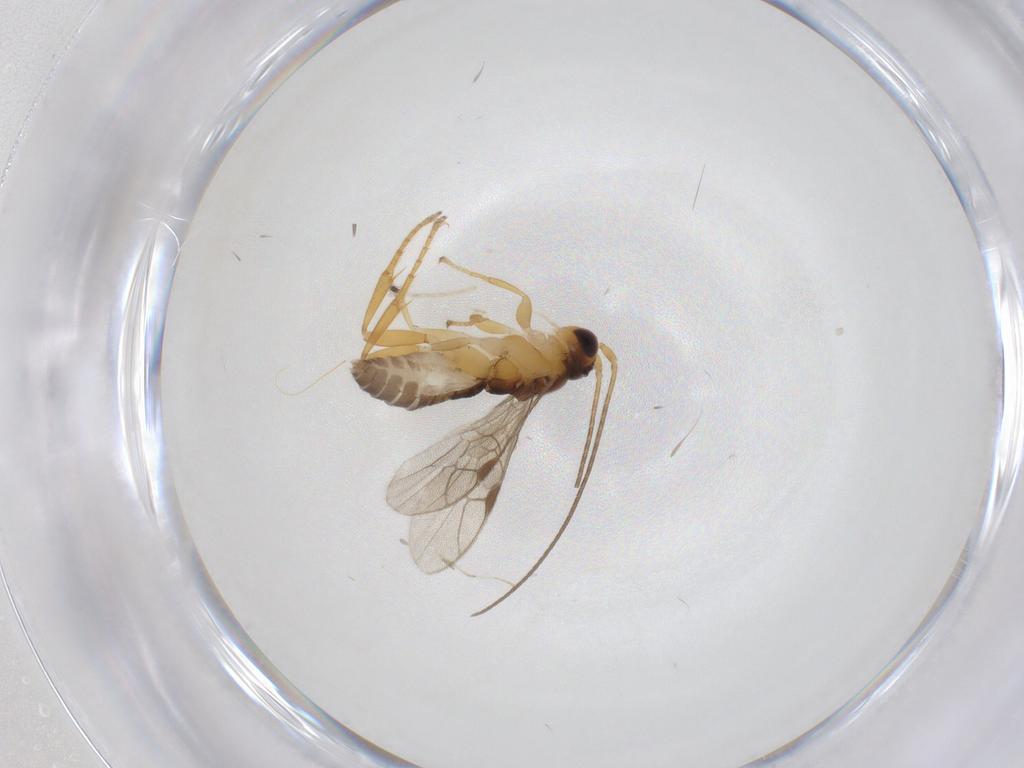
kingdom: Animalia
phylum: Arthropoda
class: Insecta
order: Hymenoptera
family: Ichneumonidae
